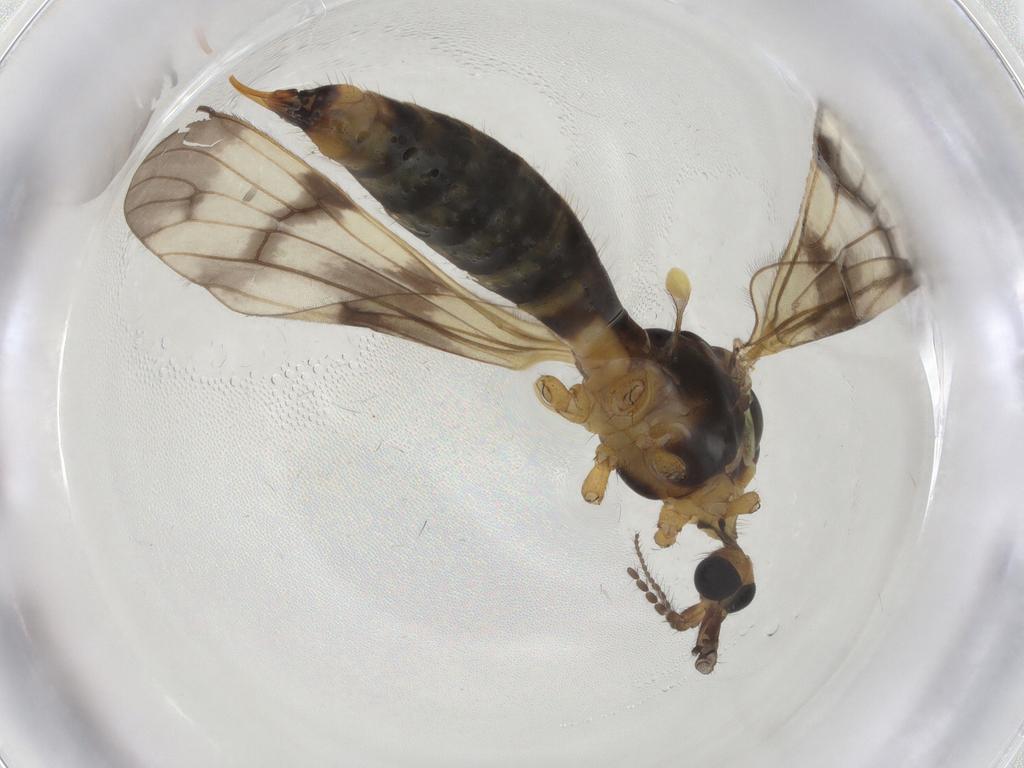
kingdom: Animalia
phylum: Arthropoda
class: Insecta
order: Diptera
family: Limoniidae
